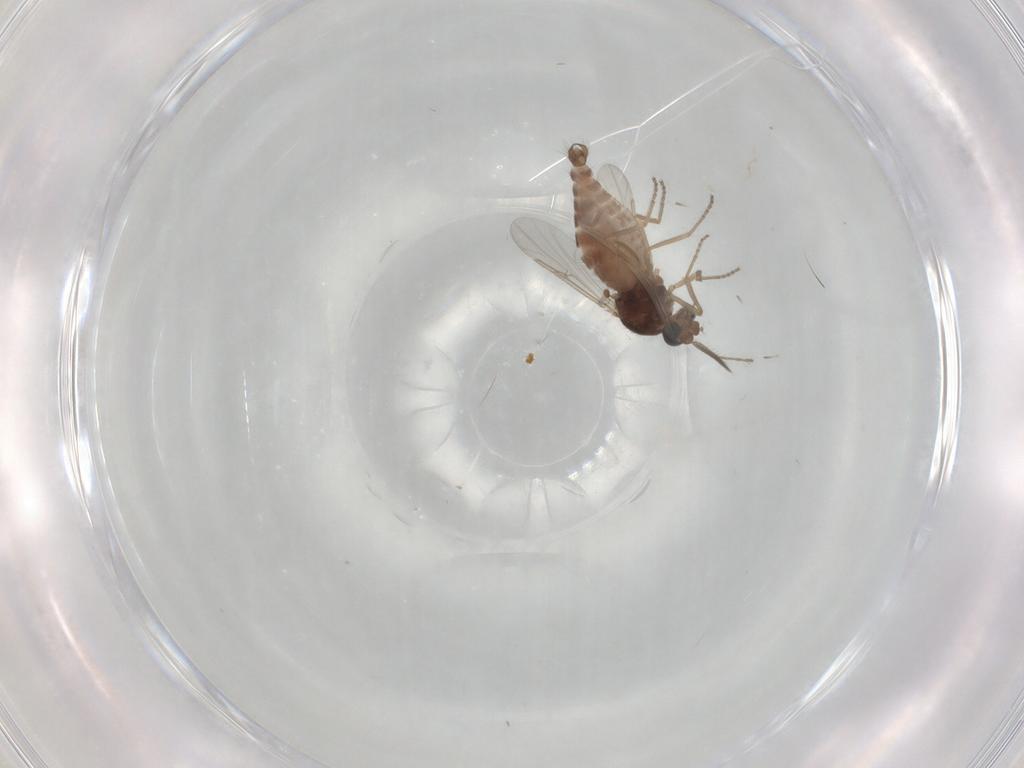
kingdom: Animalia
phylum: Arthropoda
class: Insecta
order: Diptera
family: Ceratopogonidae
